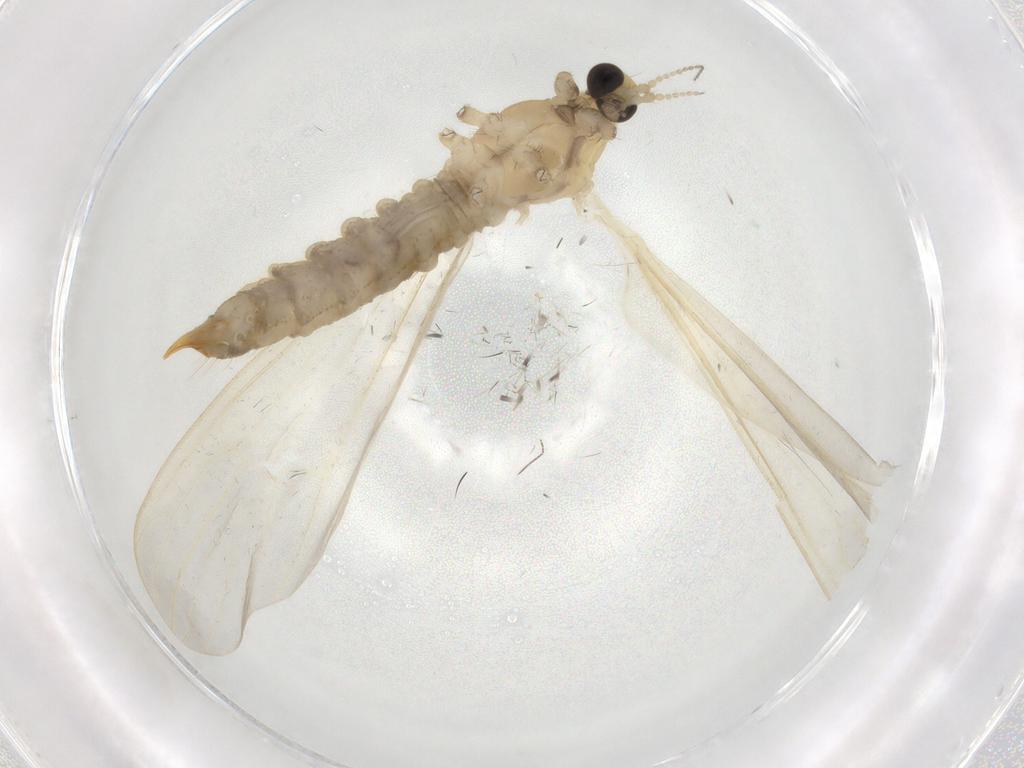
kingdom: Animalia
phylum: Arthropoda
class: Insecta
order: Diptera
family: Limoniidae
